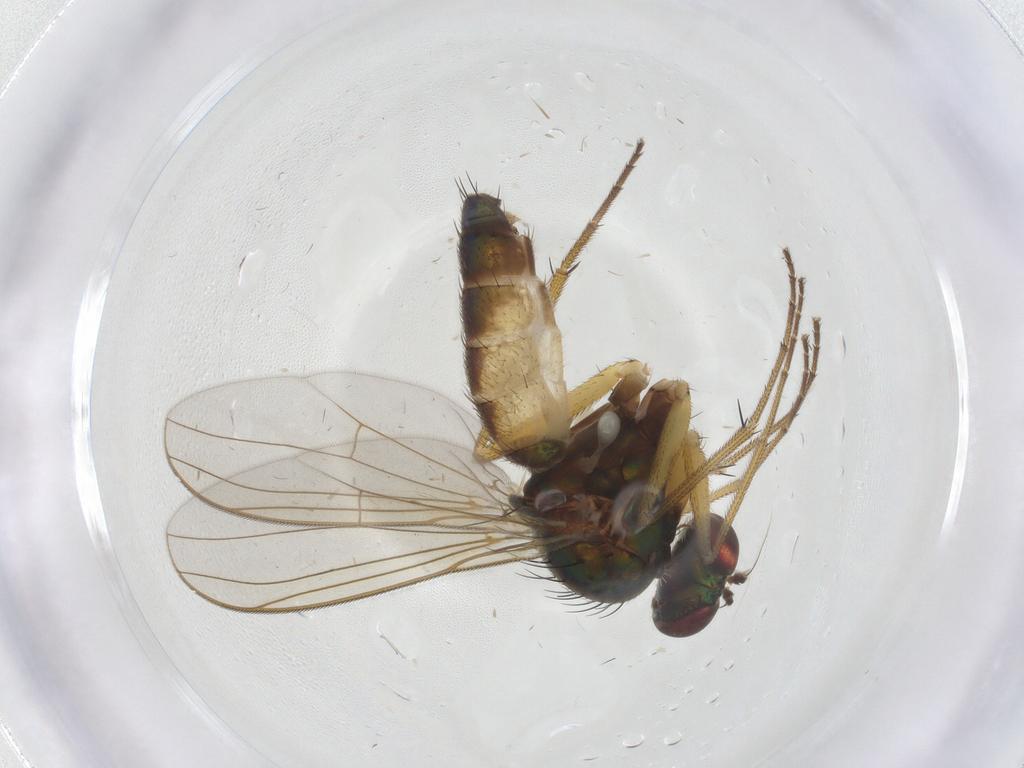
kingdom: Animalia
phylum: Arthropoda
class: Insecta
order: Diptera
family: Dolichopodidae
